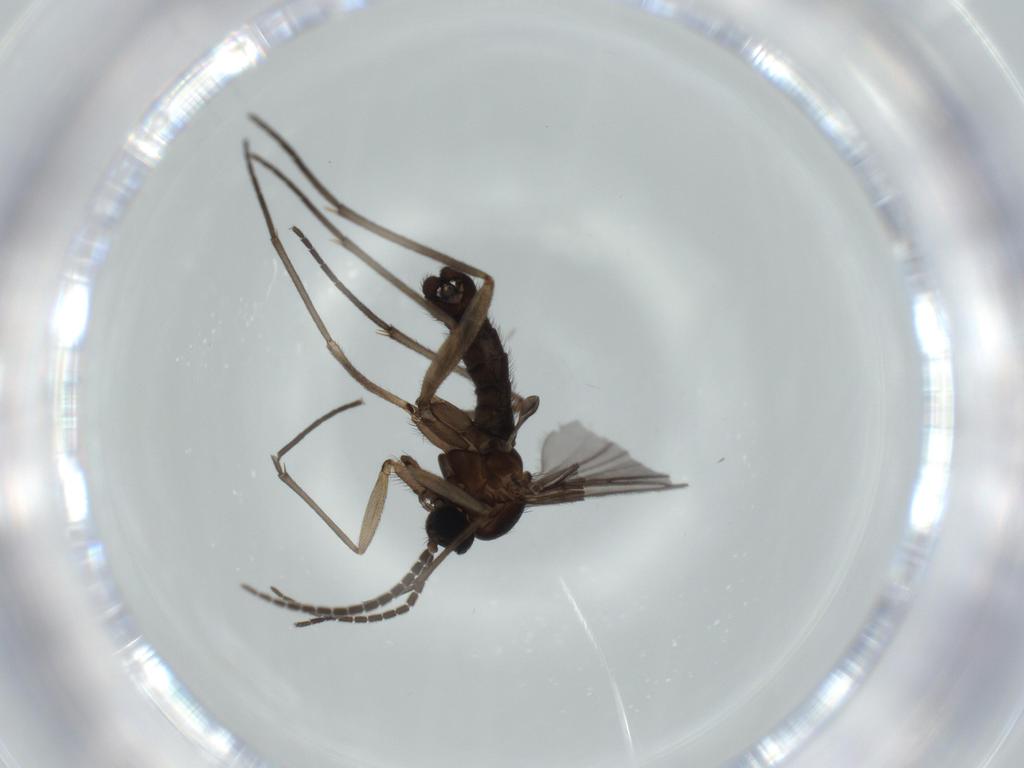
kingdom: Animalia
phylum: Arthropoda
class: Insecta
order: Diptera
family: Sciaridae
